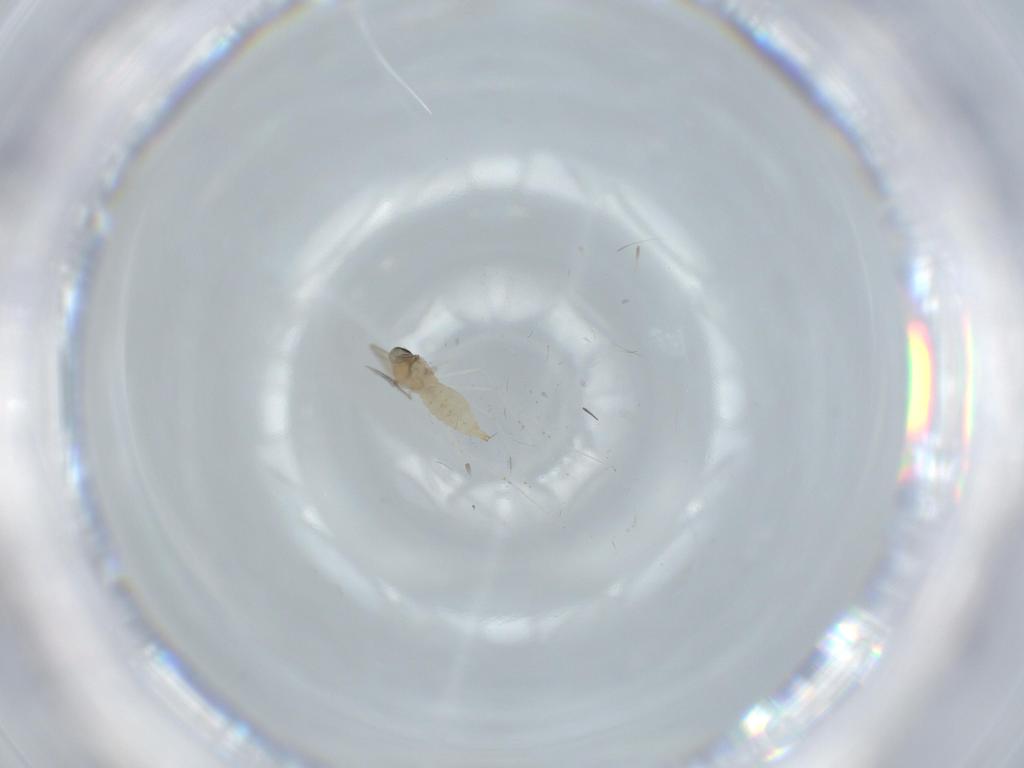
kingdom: Animalia
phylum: Arthropoda
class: Insecta
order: Diptera
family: Cecidomyiidae
